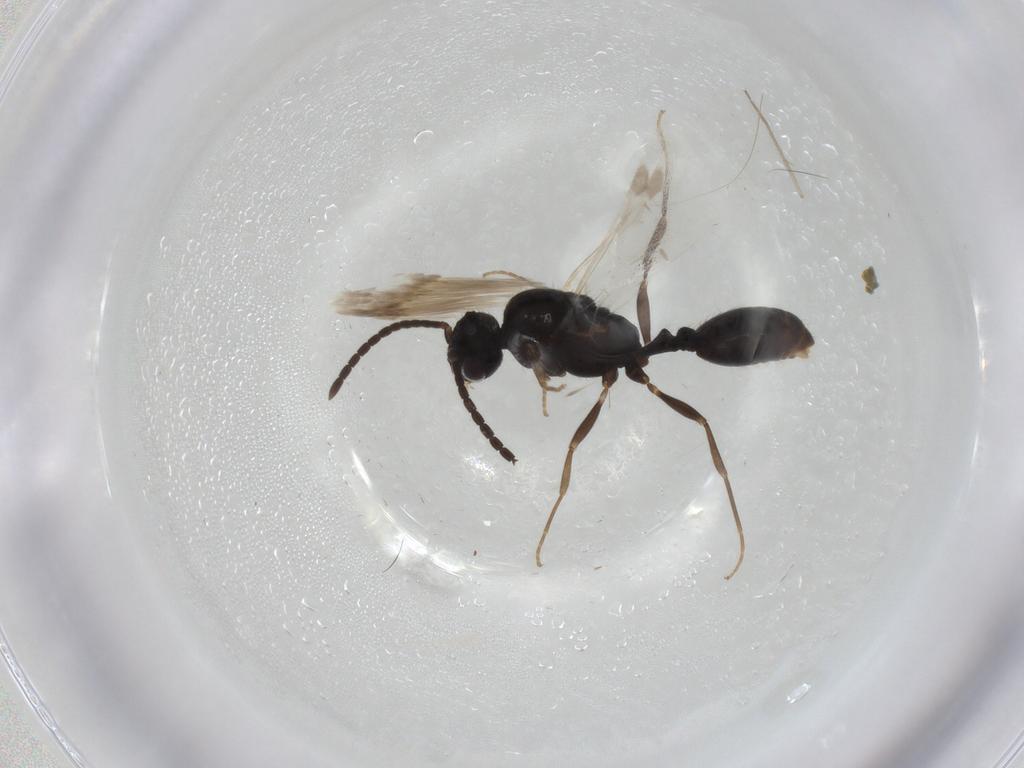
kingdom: Animalia
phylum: Arthropoda
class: Insecta
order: Hymenoptera
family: Formicidae
